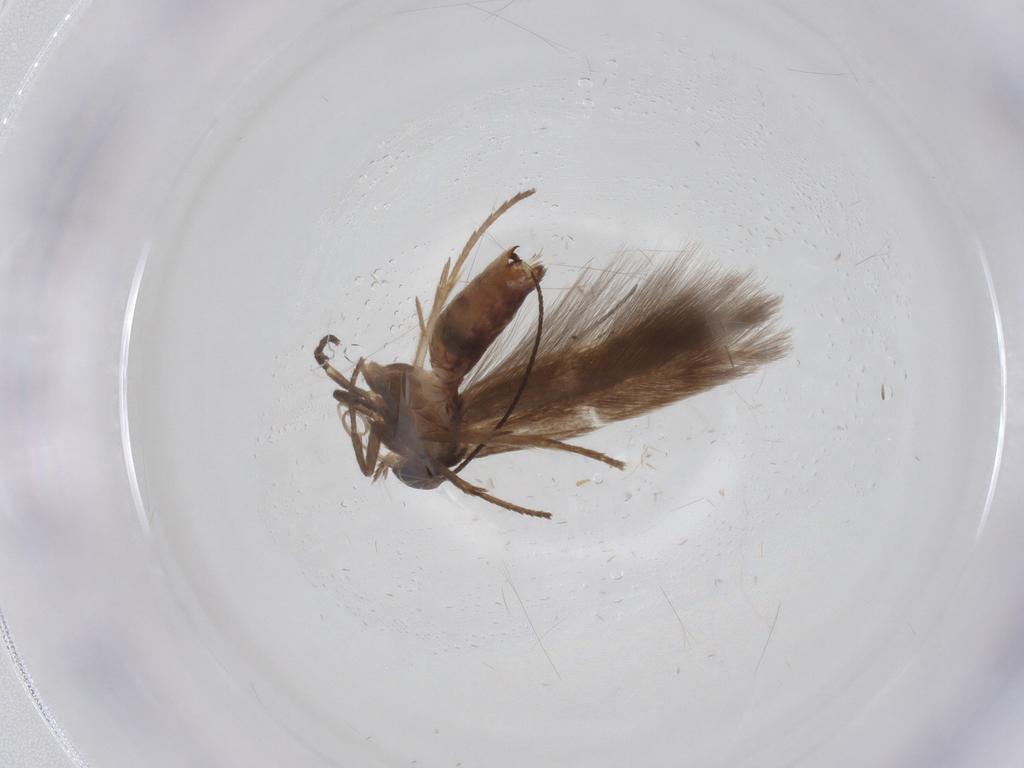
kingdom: Animalia
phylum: Arthropoda
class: Insecta
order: Lepidoptera
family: Scythrididae
